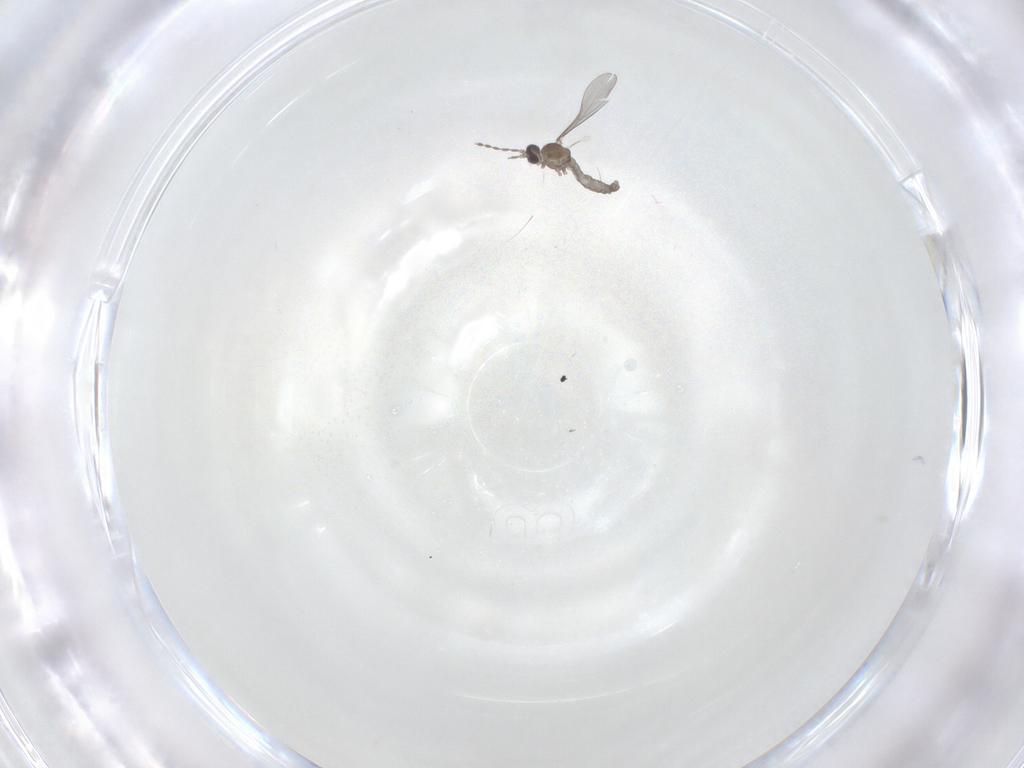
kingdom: Animalia
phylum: Arthropoda
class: Insecta
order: Diptera
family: Cecidomyiidae
